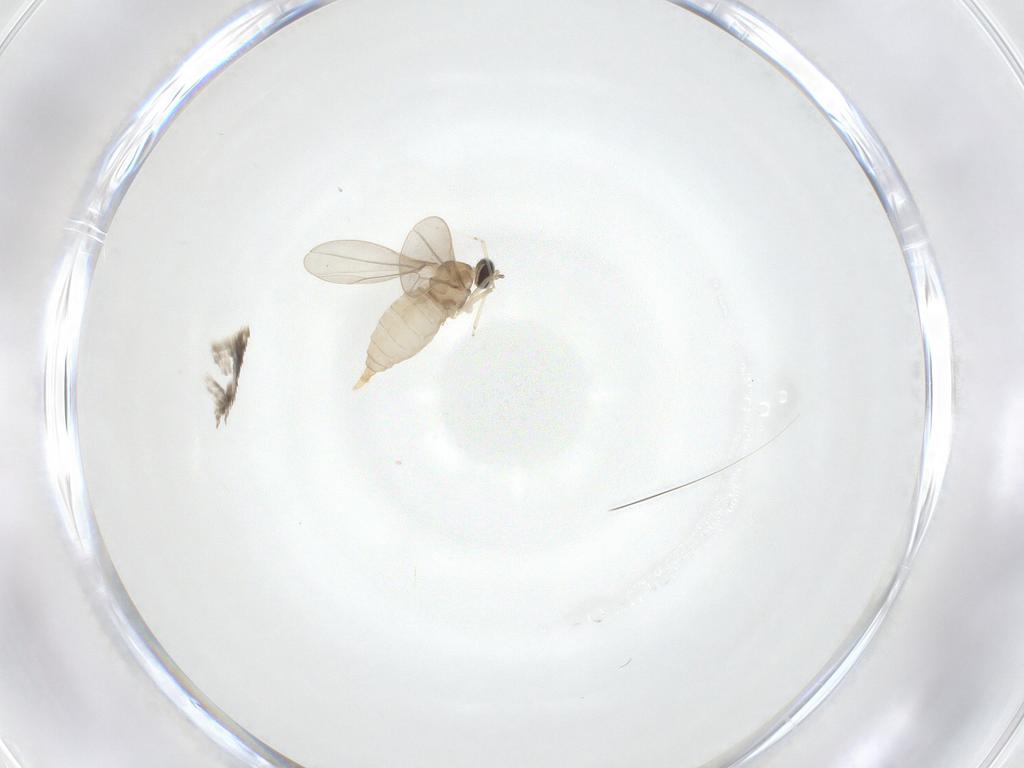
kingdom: Animalia
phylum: Arthropoda
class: Insecta
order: Diptera
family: Cecidomyiidae
